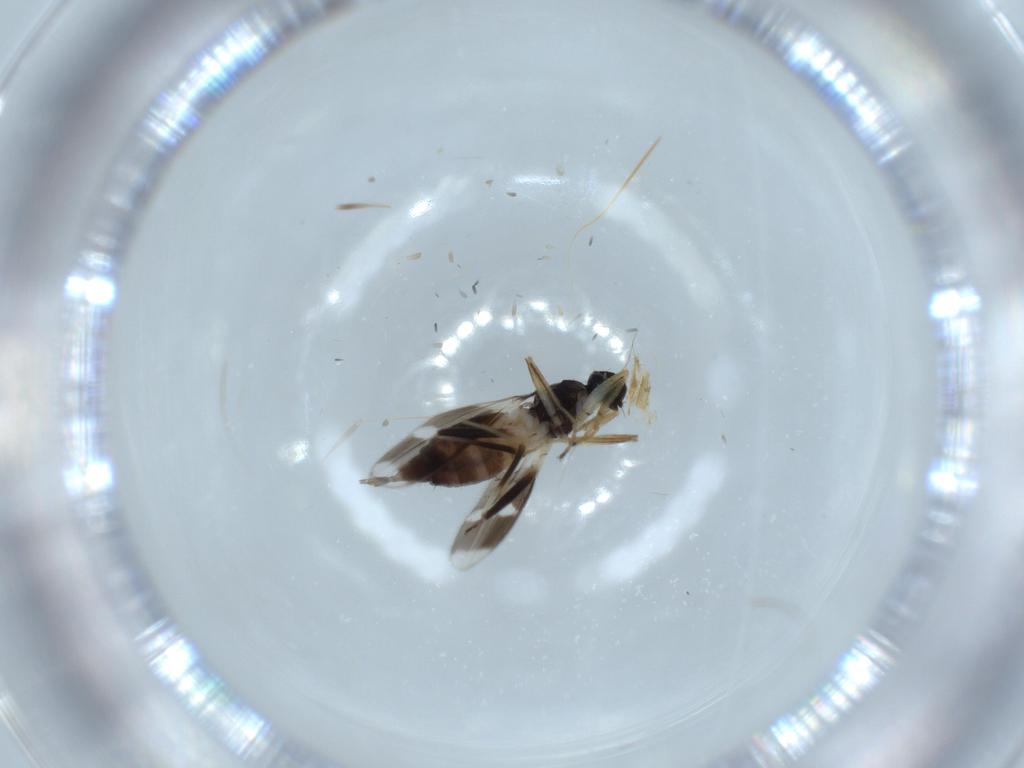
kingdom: Animalia
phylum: Arthropoda
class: Insecta
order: Diptera
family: Hybotidae
